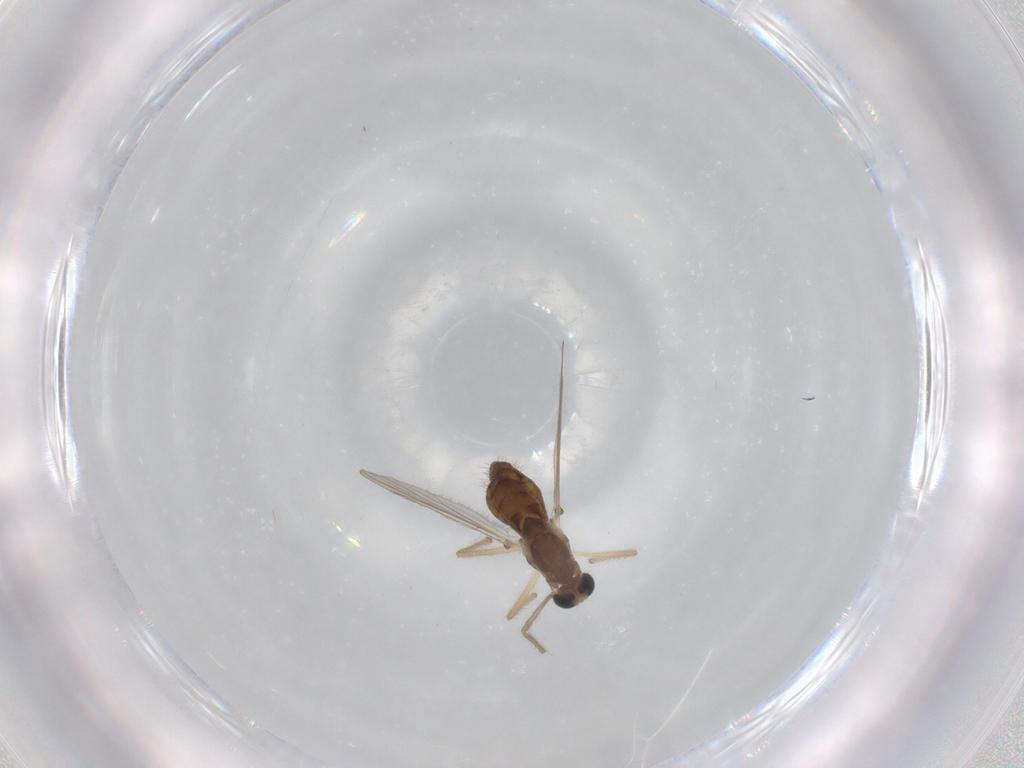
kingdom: Animalia
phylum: Arthropoda
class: Insecta
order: Diptera
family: Chironomidae
